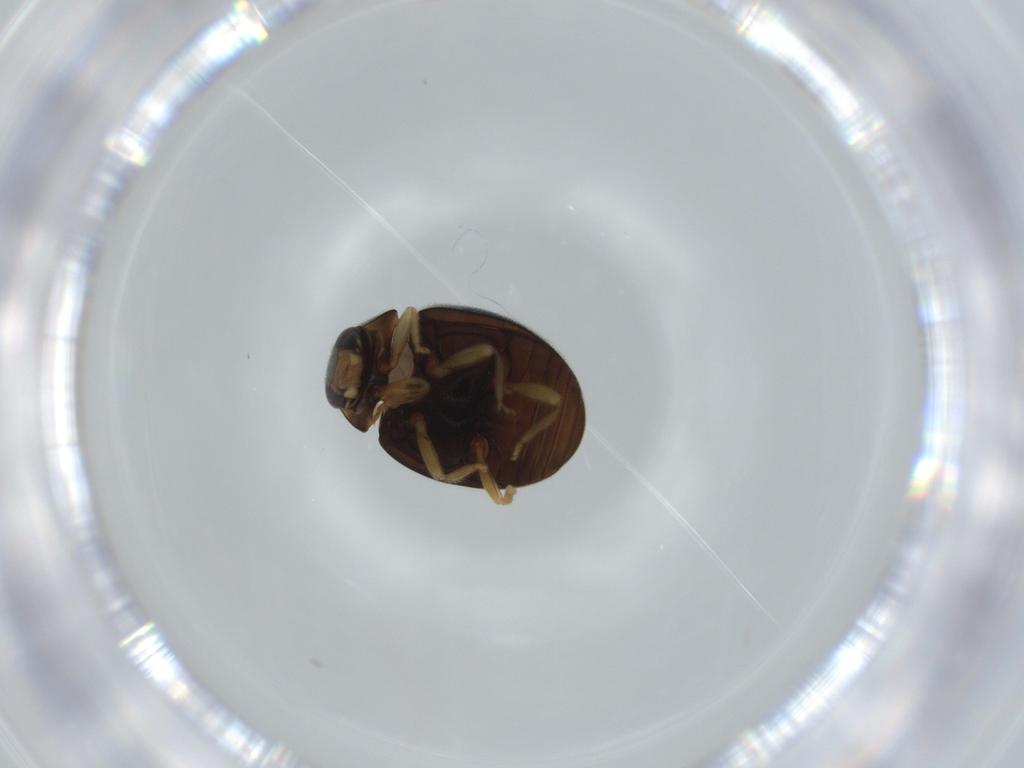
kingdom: Animalia
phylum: Arthropoda
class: Insecta
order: Coleoptera
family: Coccinellidae
